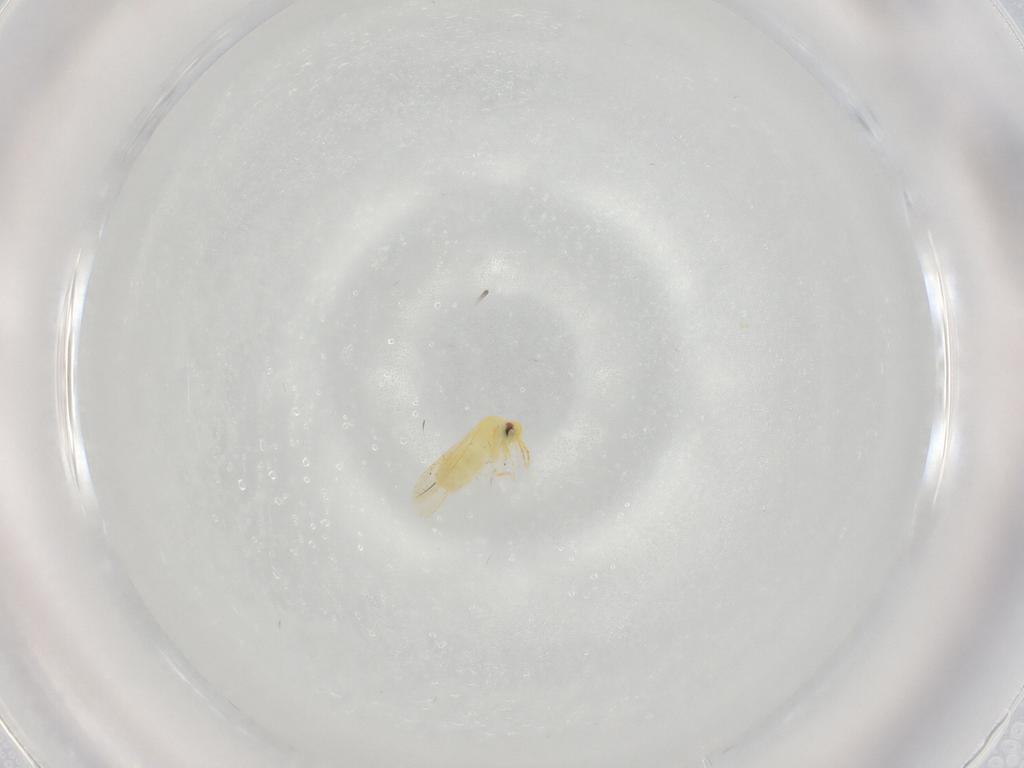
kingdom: Animalia
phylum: Arthropoda
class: Insecta
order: Hemiptera
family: Aleyrodidae
